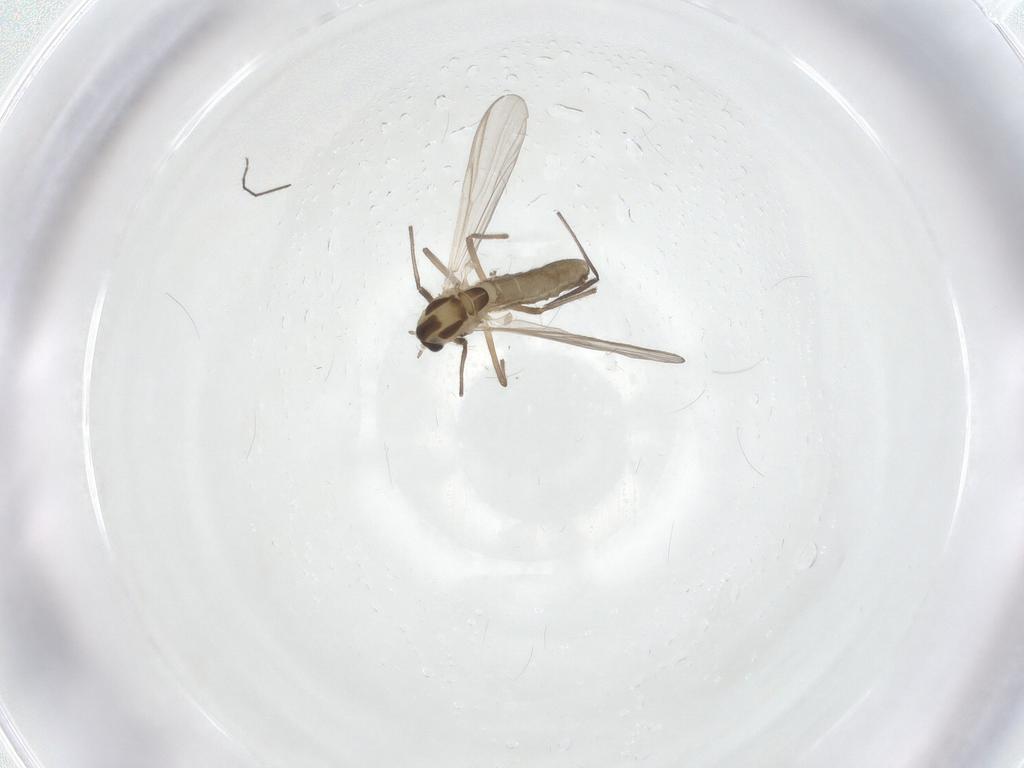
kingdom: Animalia
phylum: Arthropoda
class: Insecta
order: Diptera
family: Chironomidae
